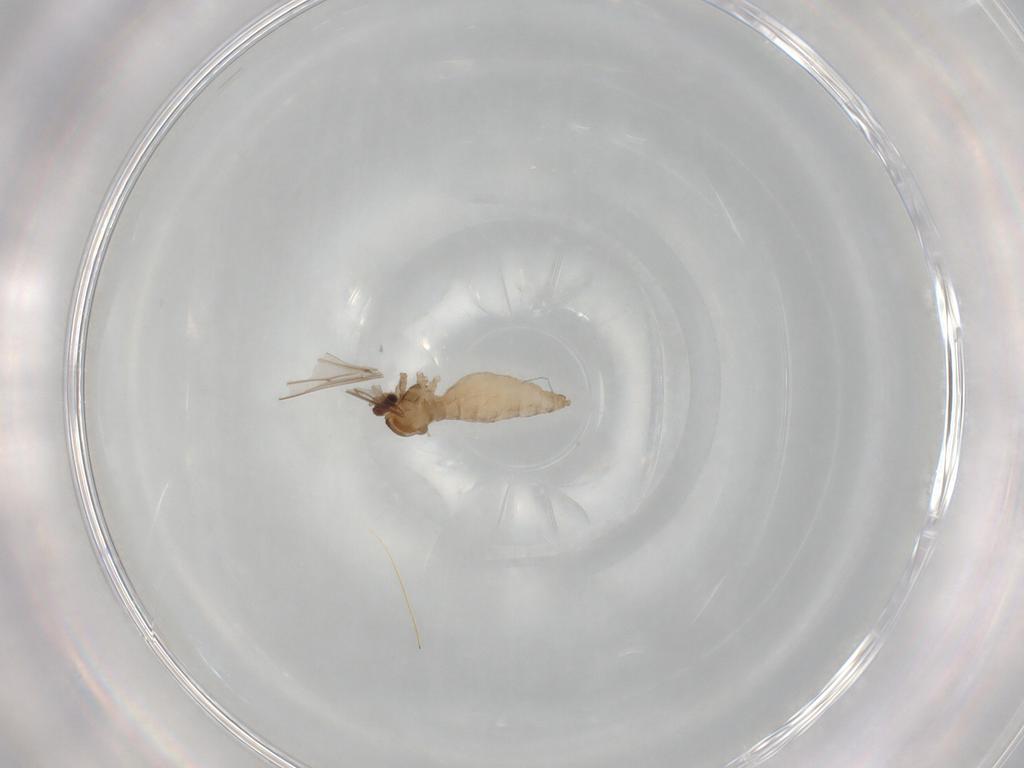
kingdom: Animalia
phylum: Arthropoda
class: Insecta
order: Diptera
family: Cecidomyiidae
